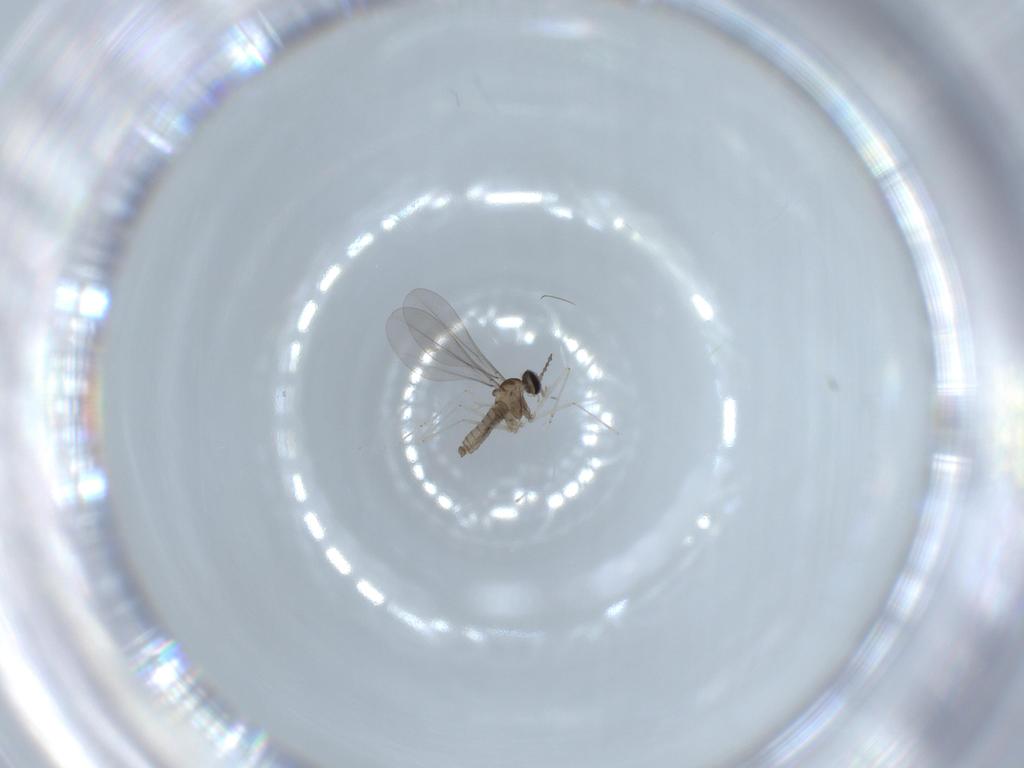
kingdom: Animalia
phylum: Arthropoda
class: Insecta
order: Diptera
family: Cecidomyiidae
